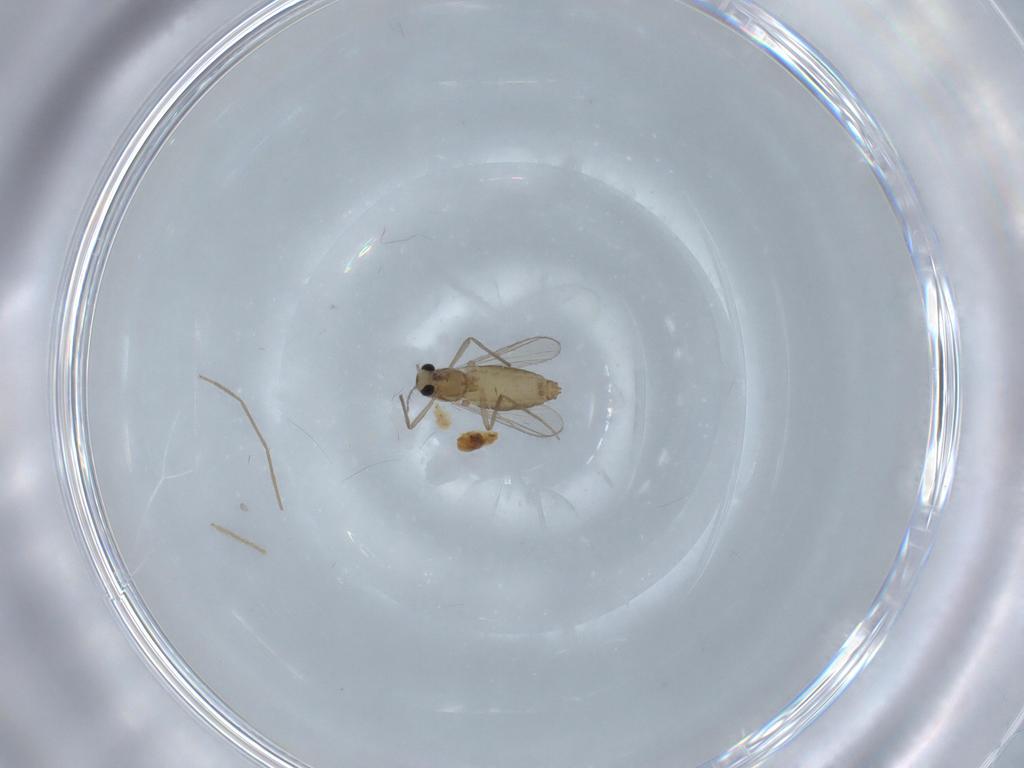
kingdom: Animalia
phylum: Arthropoda
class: Insecta
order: Diptera
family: Chironomidae
